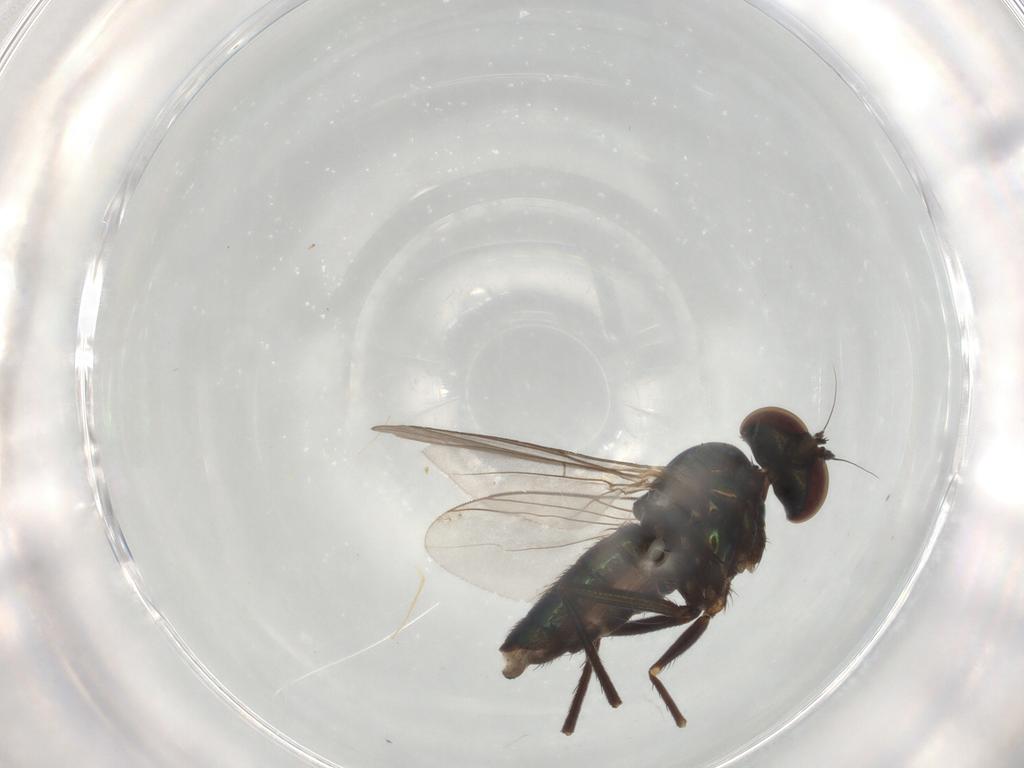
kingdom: Animalia
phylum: Arthropoda
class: Insecta
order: Diptera
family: Dolichopodidae
